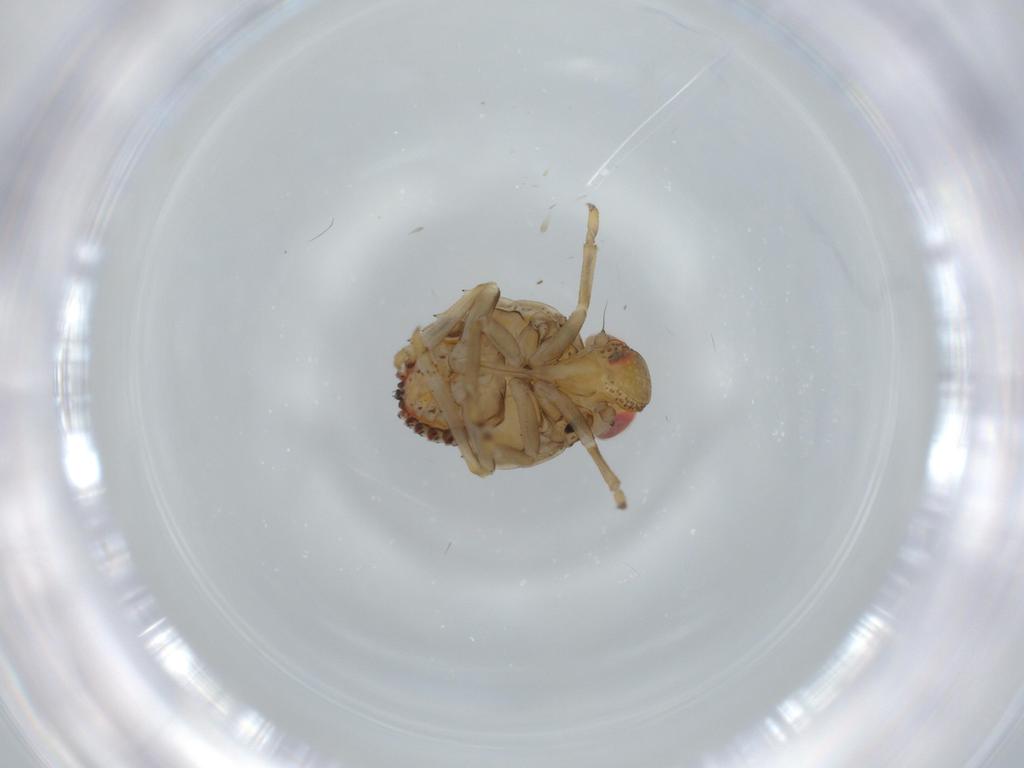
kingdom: Animalia
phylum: Arthropoda
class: Insecta
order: Hemiptera
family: Issidae
